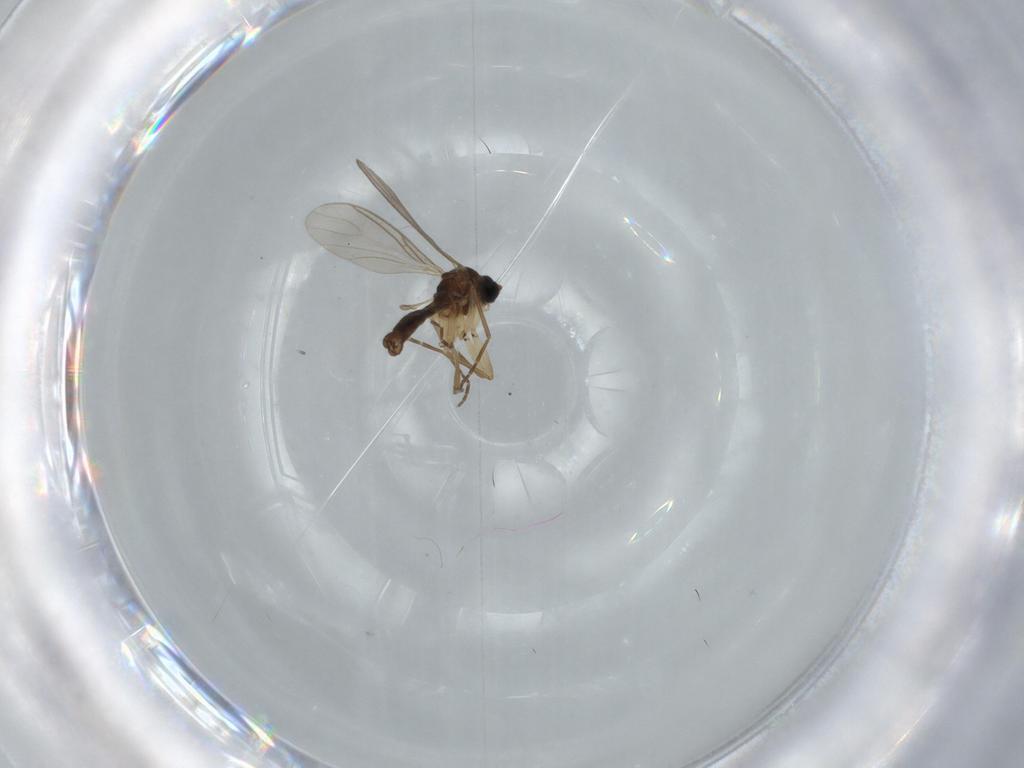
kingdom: Animalia
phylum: Arthropoda
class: Insecta
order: Diptera
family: Sciaridae
